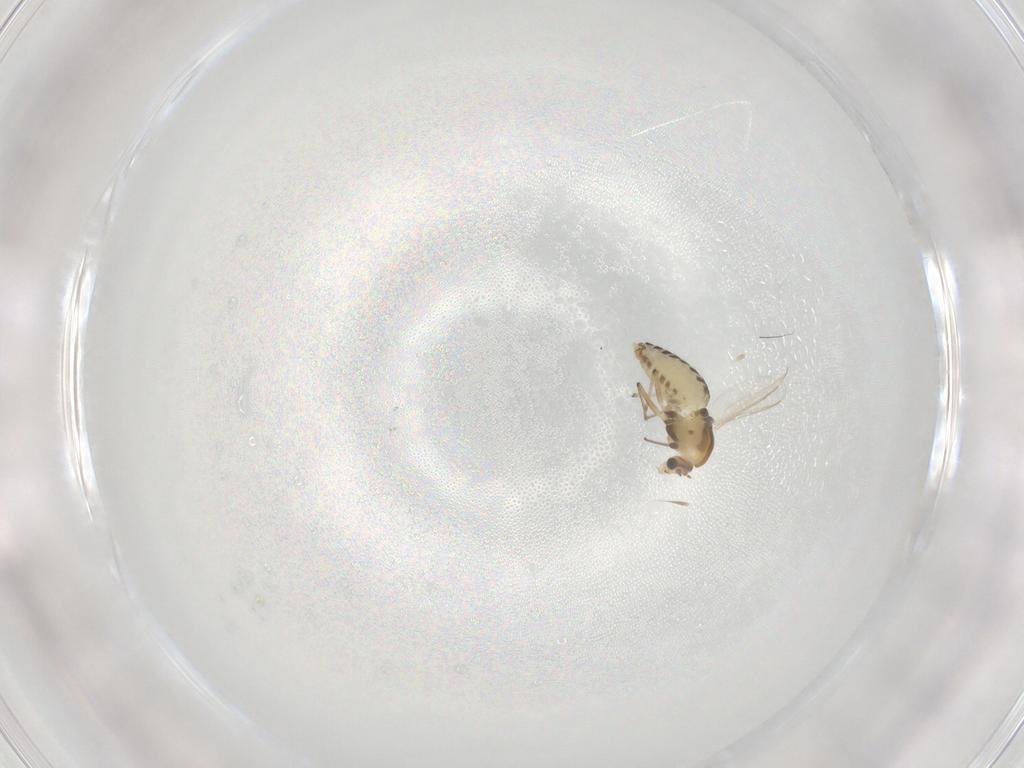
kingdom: Animalia
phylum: Arthropoda
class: Insecta
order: Diptera
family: Chironomidae
